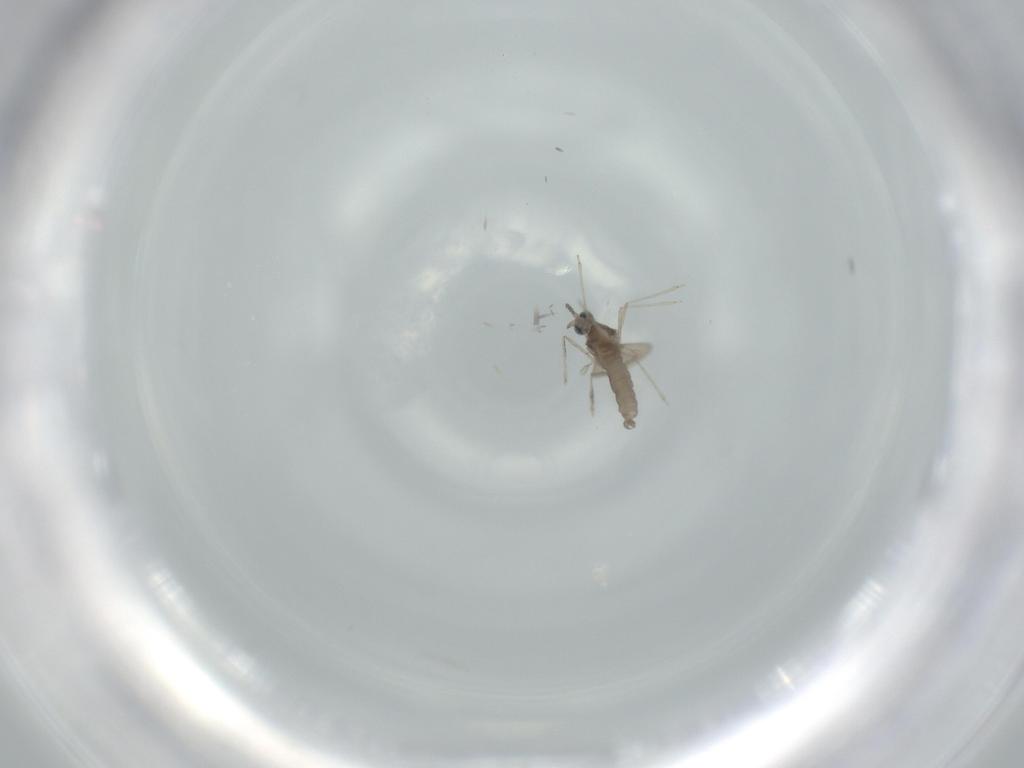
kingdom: Animalia
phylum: Arthropoda
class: Insecta
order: Diptera
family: Cecidomyiidae
